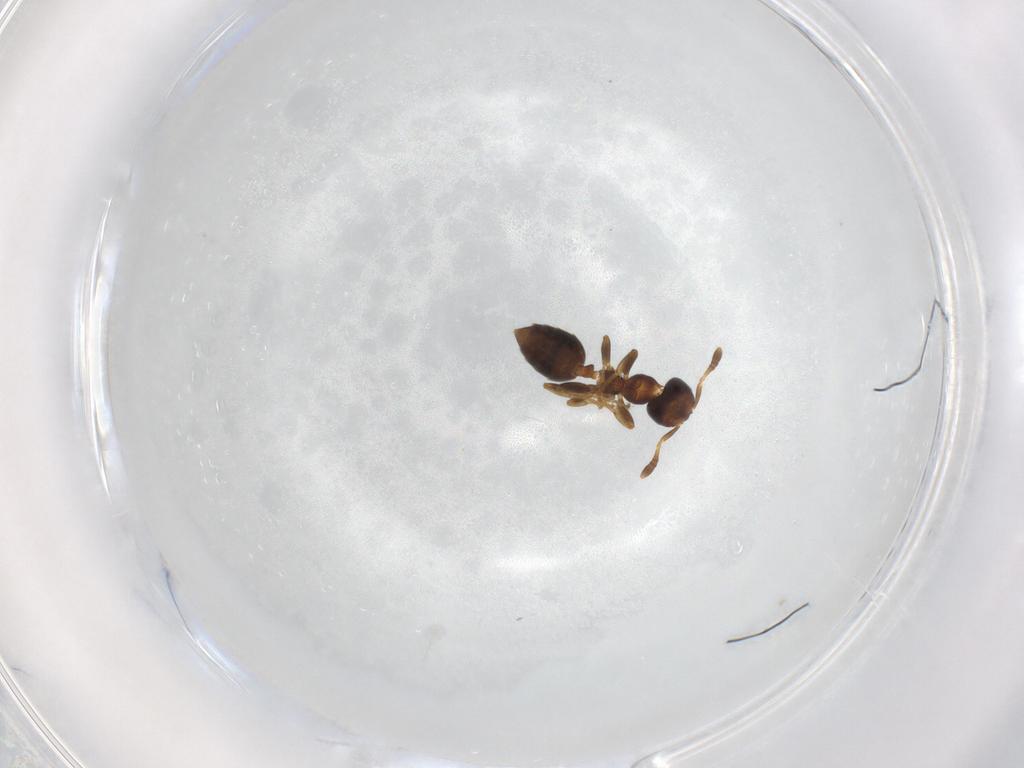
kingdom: Animalia
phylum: Arthropoda
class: Insecta
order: Hymenoptera
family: Formicidae
